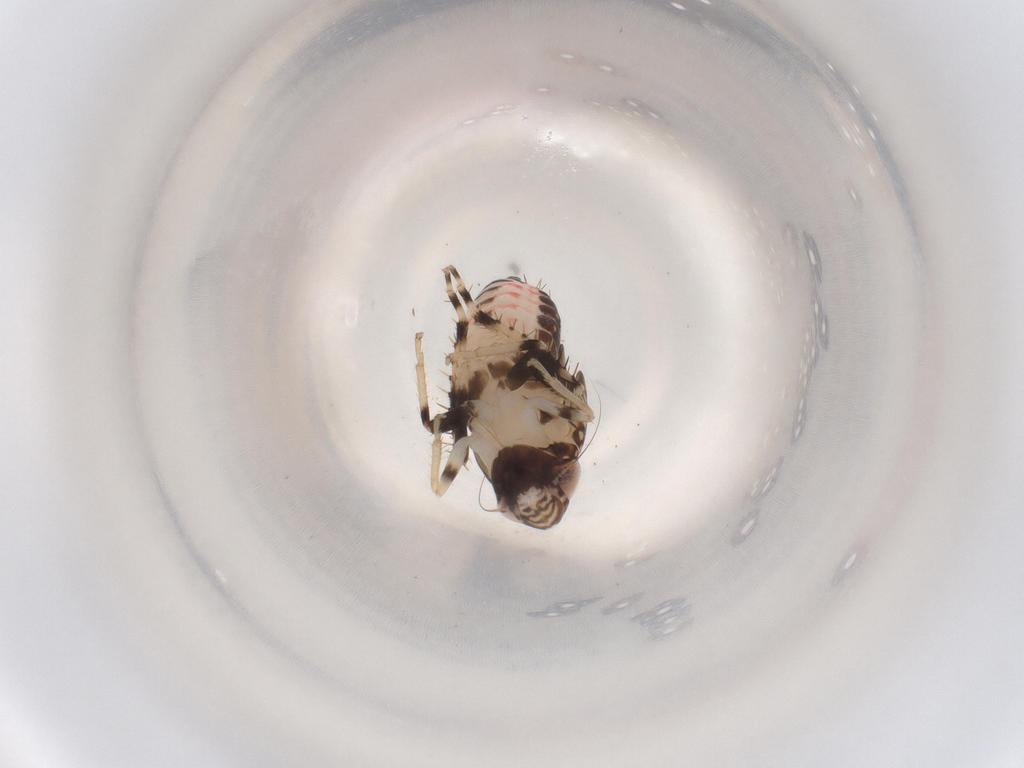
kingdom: Animalia
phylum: Arthropoda
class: Insecta
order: Hemiptera
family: Cicadellidae
